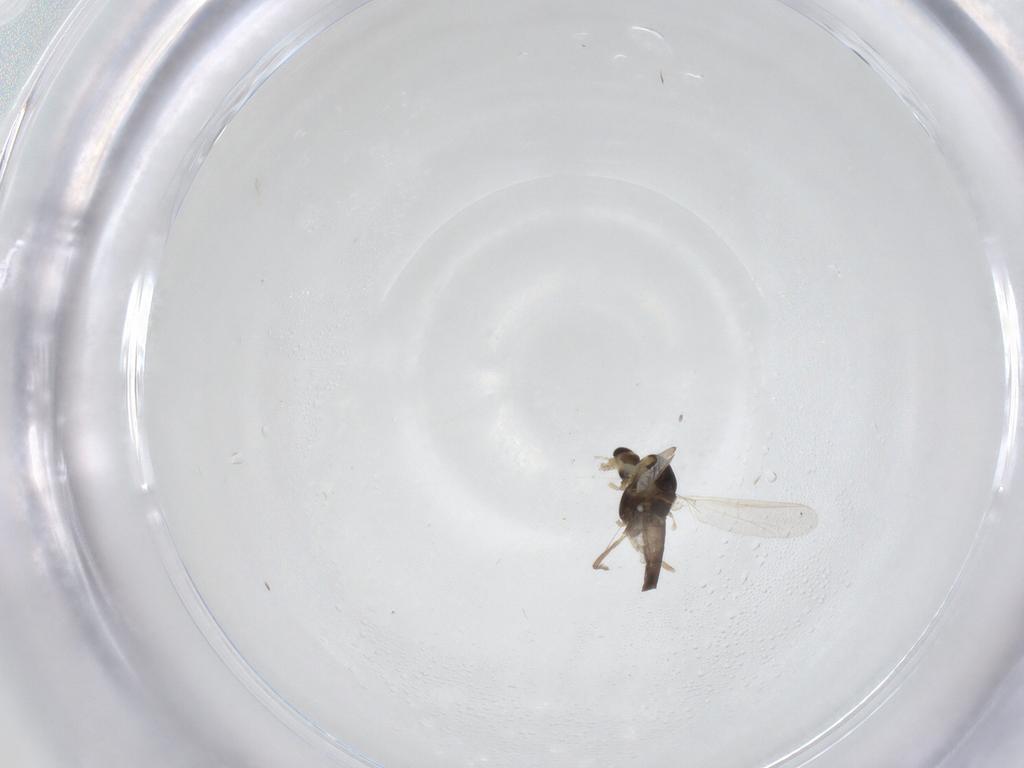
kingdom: Animalia
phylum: Arthropoda
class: Insecta
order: Diptera
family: Chironomidae
